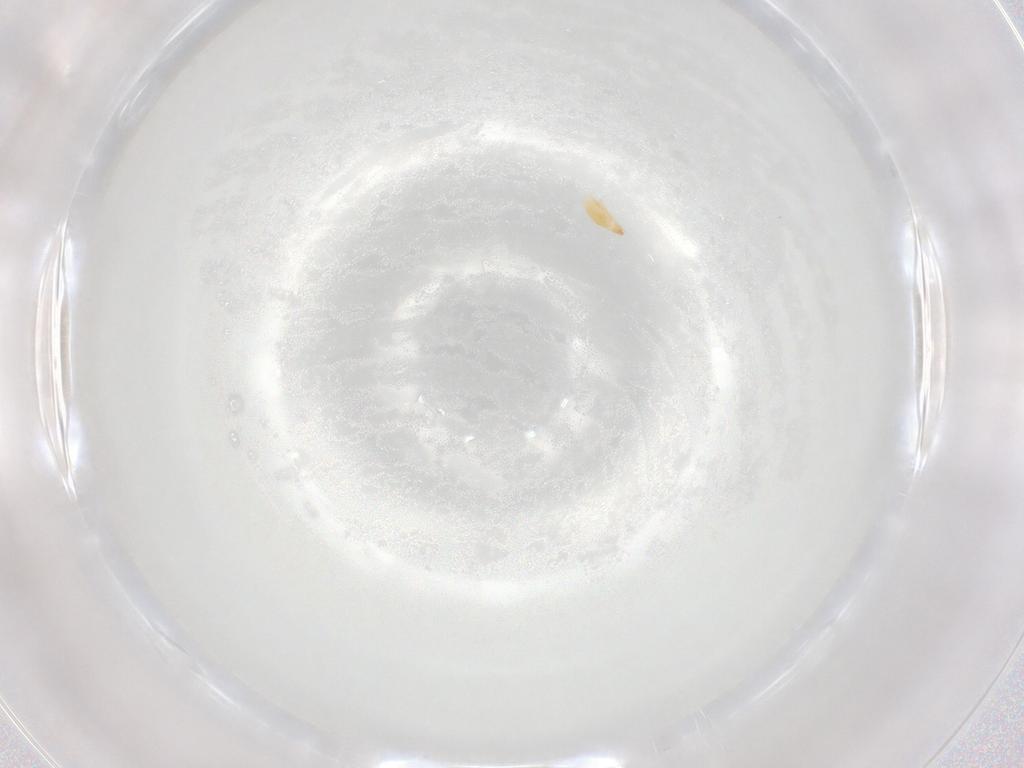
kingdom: Animalia
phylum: Arthropoda
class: Arachnida
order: Trombidiformes
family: Cunaxidae
